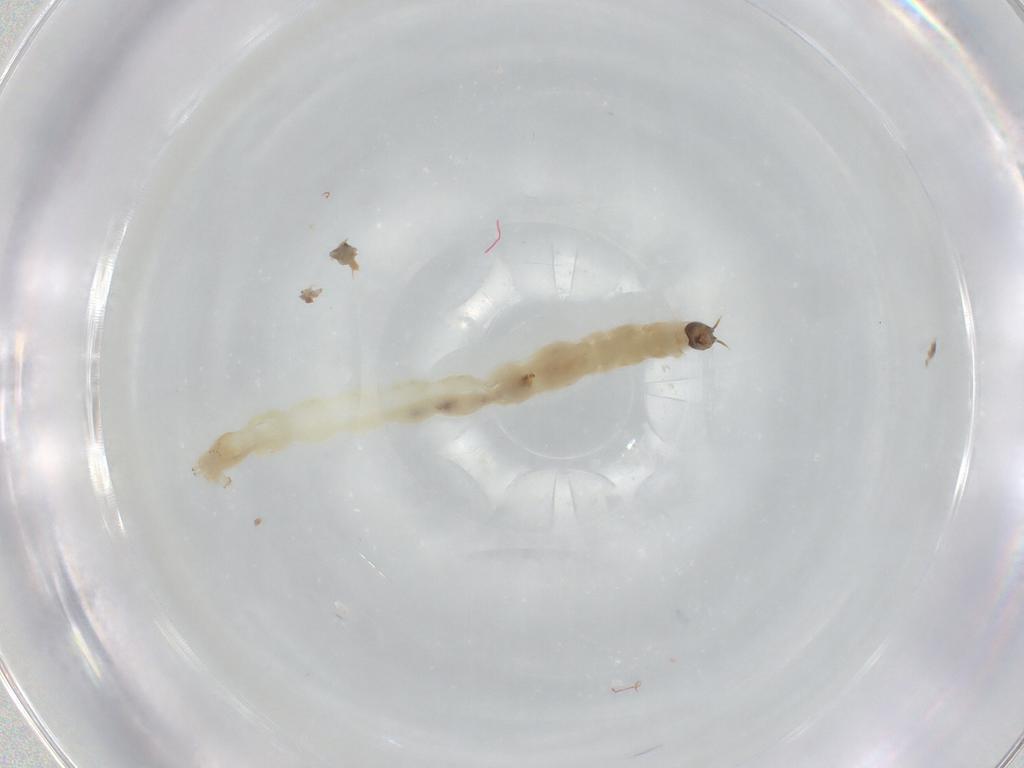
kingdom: Animalia
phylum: Arthropoda
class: Insecta
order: Diptera
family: Chironomidae
